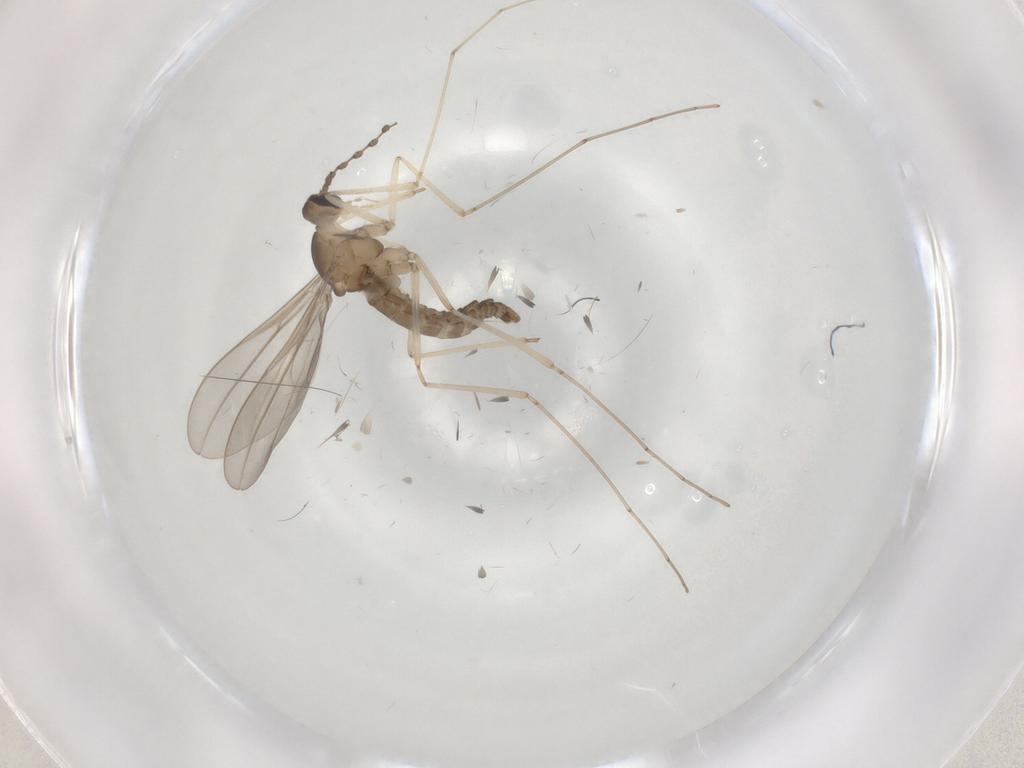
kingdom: Animalia
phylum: Arthropoda
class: Insecta
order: Diptera
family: Cecidomyiidae
